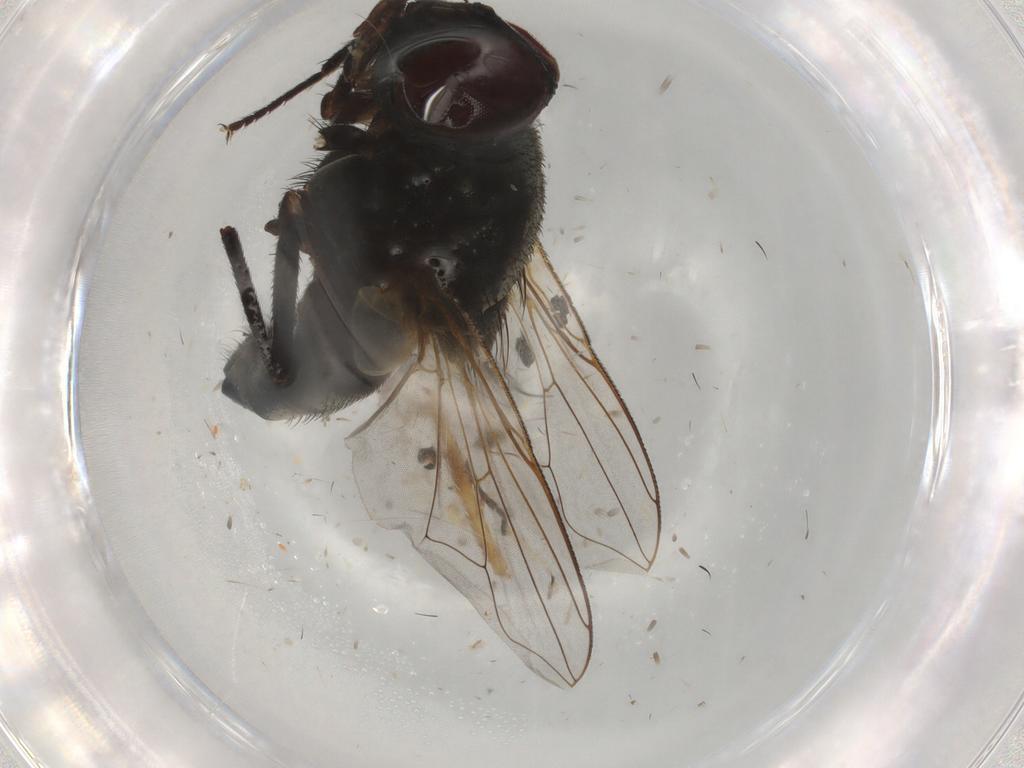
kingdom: Animalia
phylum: Arthropoda
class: Insecta
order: Diptera
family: Muscidae
